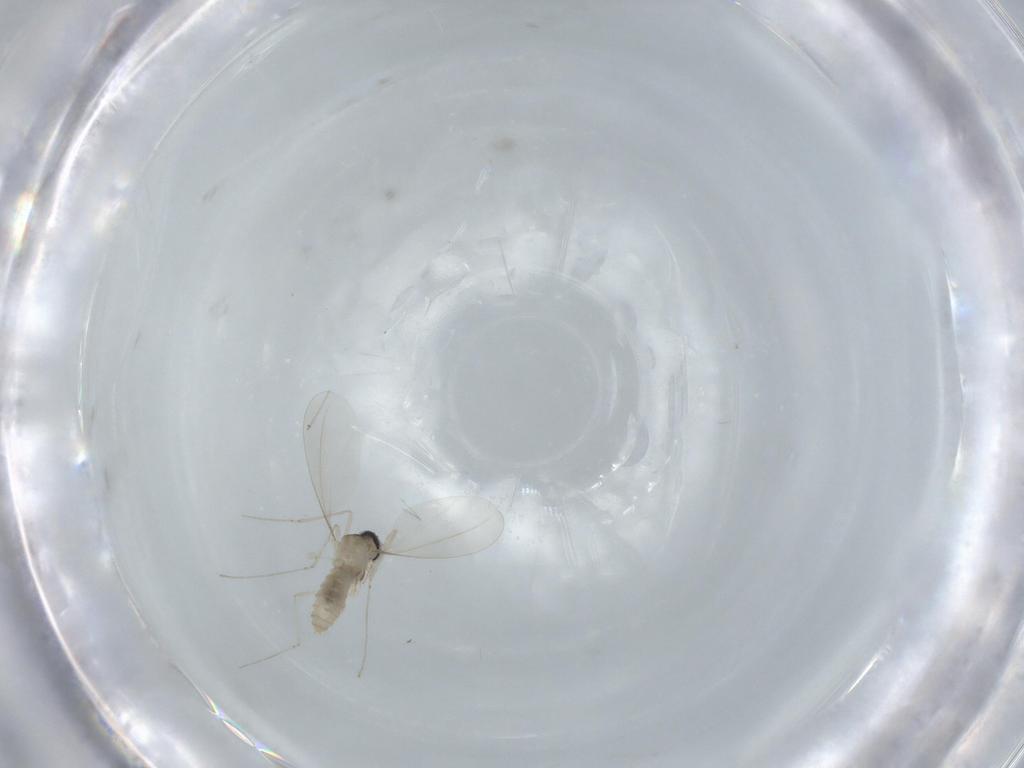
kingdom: Animalia
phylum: Arthropoda
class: Insecta
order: Diptera
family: Cecidomyiidae
